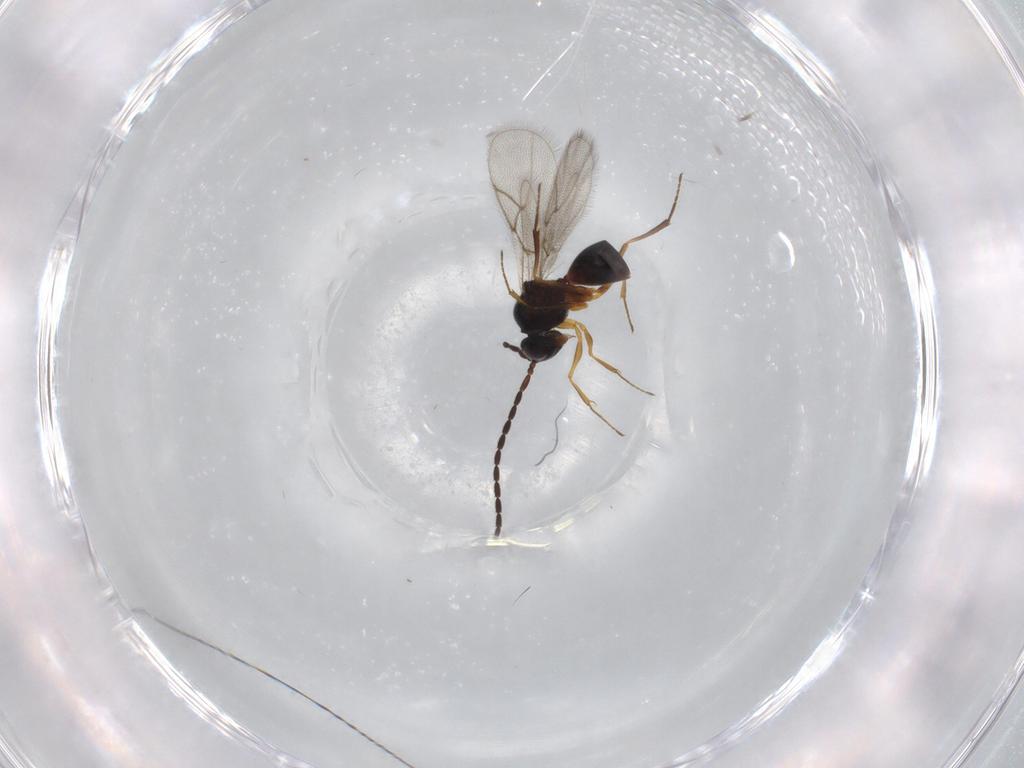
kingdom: Animalia
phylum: Arthropoda
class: Insecta
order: Hymenoptera
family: Figitidae
